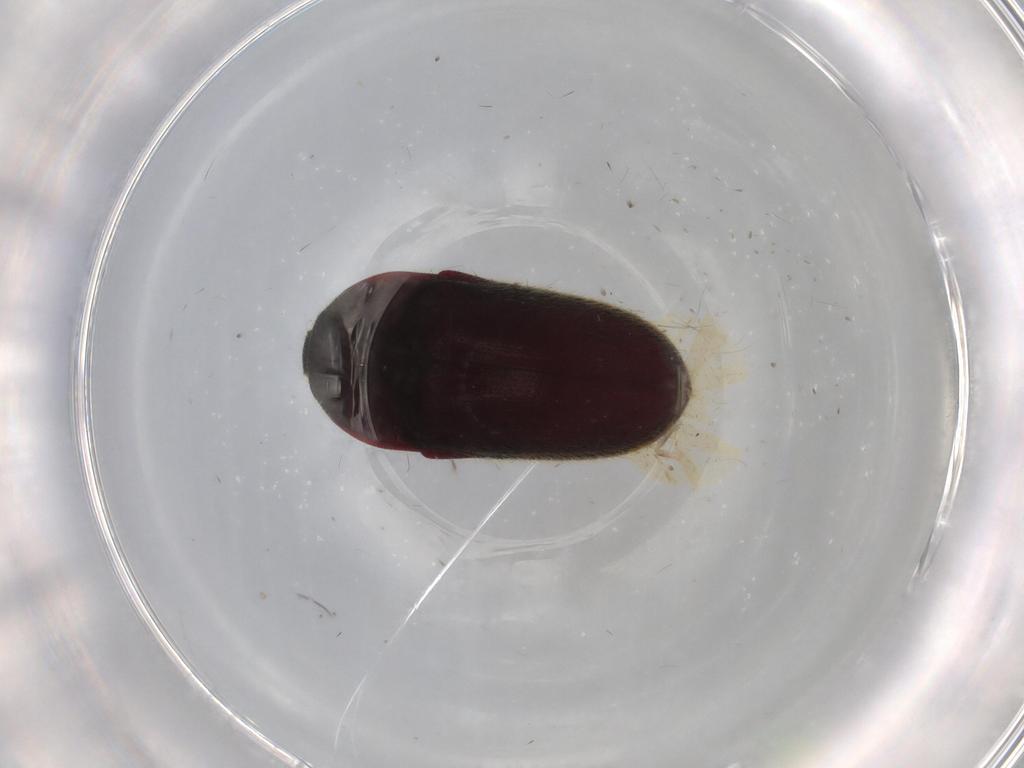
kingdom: Animalia
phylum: Arthropoda
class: Insecta
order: Coleoptera
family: Throscidae
